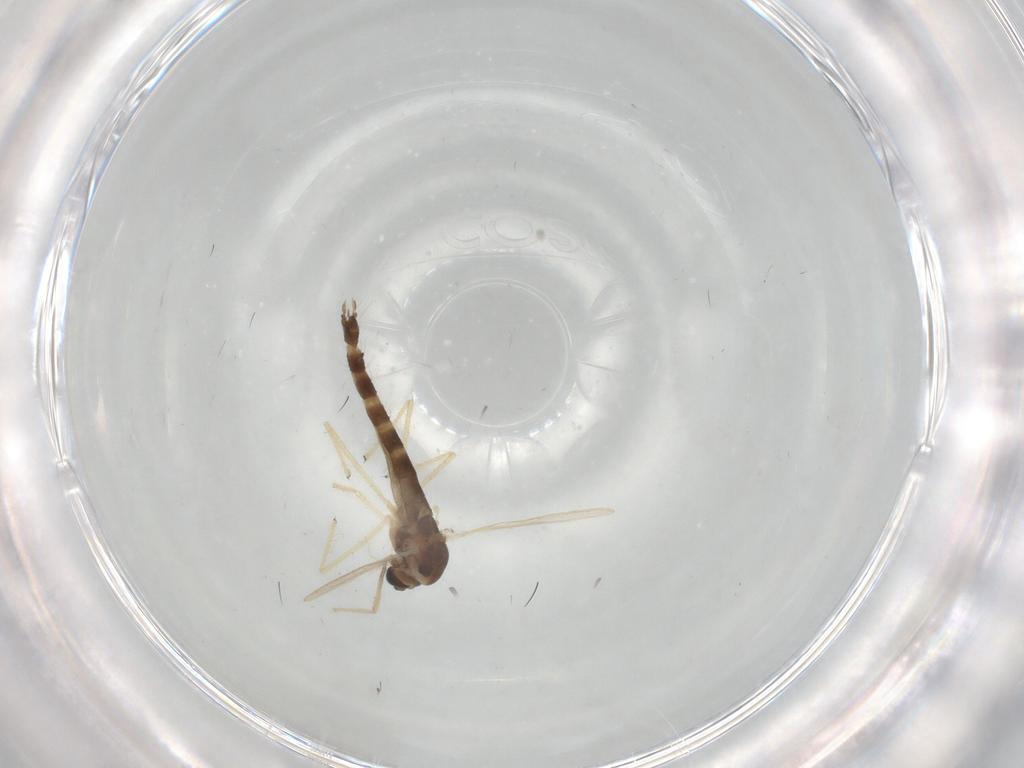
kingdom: Animalia
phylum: Arthropoda
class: Insecta
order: Diptera
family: Chironomidae
